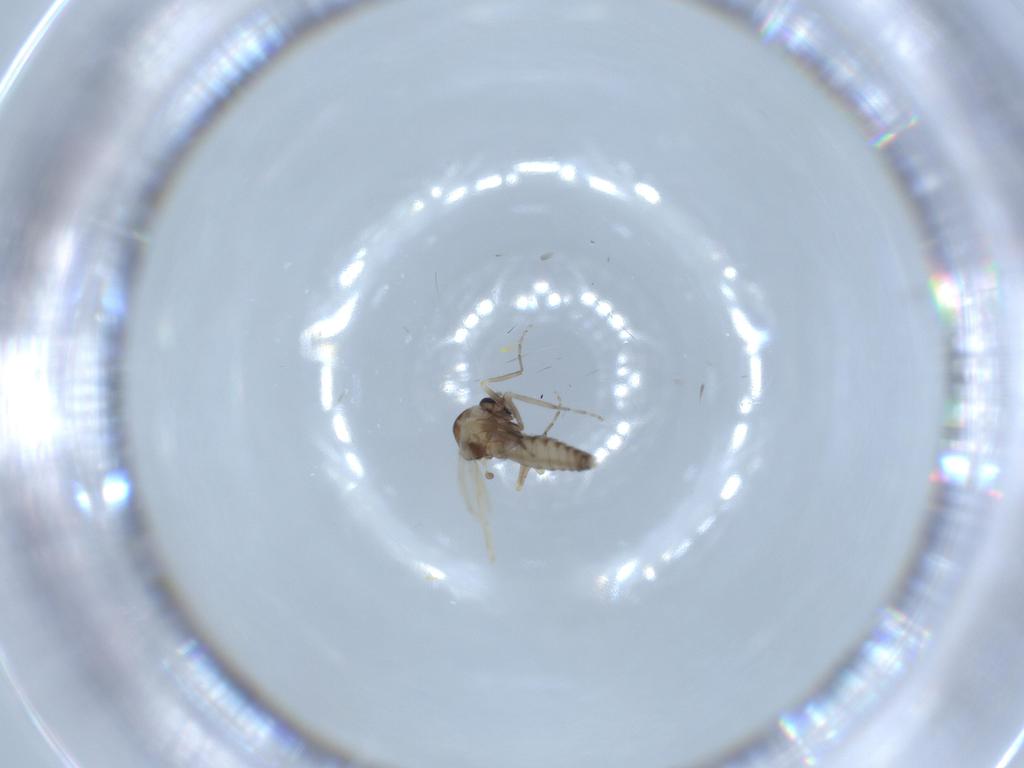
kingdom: Animalia
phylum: Arthropoda
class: Insecta
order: Diptera
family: Ceratopogonidae
